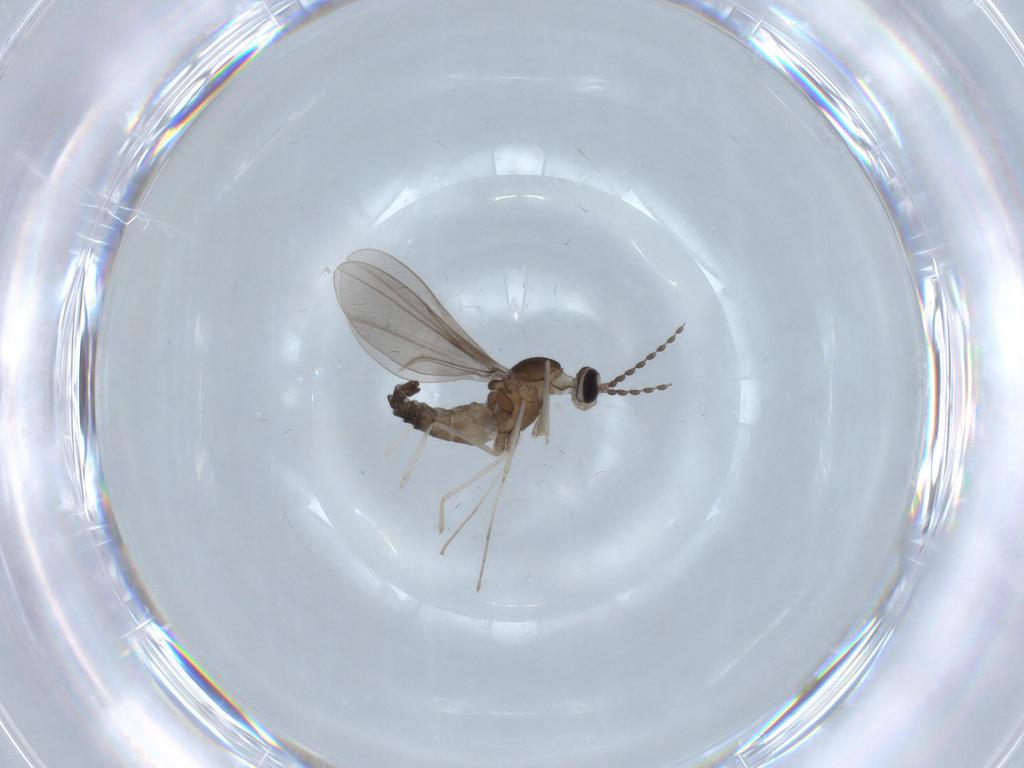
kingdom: Animalia
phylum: Arthropoda
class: Insecta
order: Diptera
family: Cecidomyiidae
